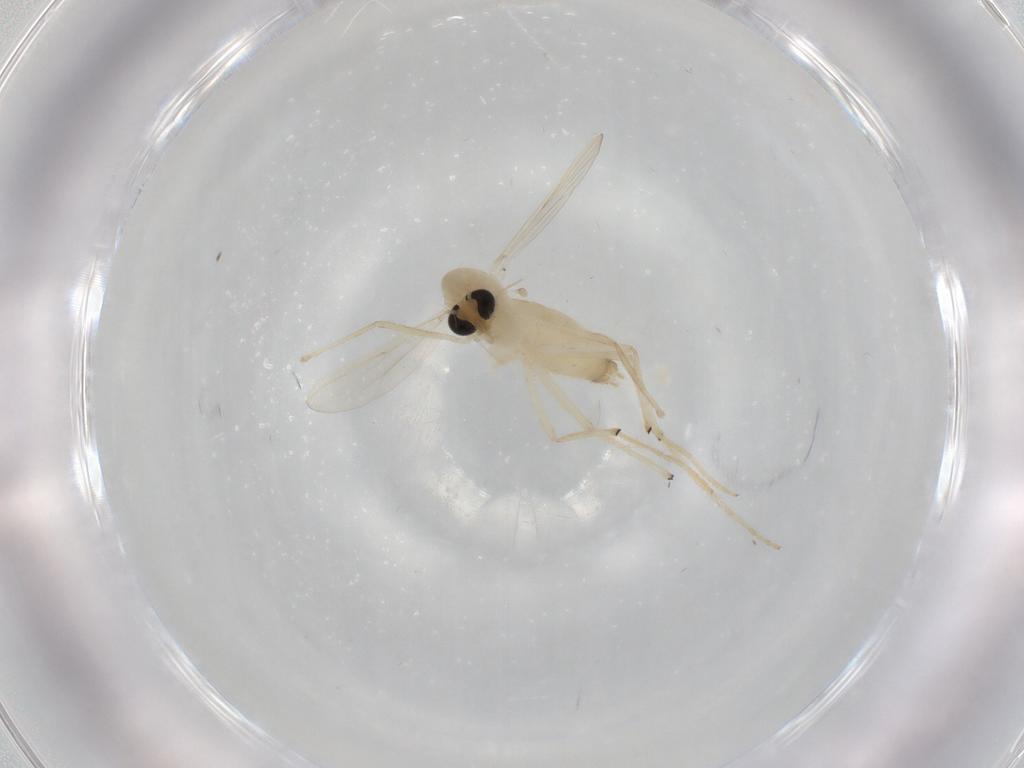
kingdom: Animalia
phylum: Arthropoda
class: Insecta
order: Diptera
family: Chironomidae
